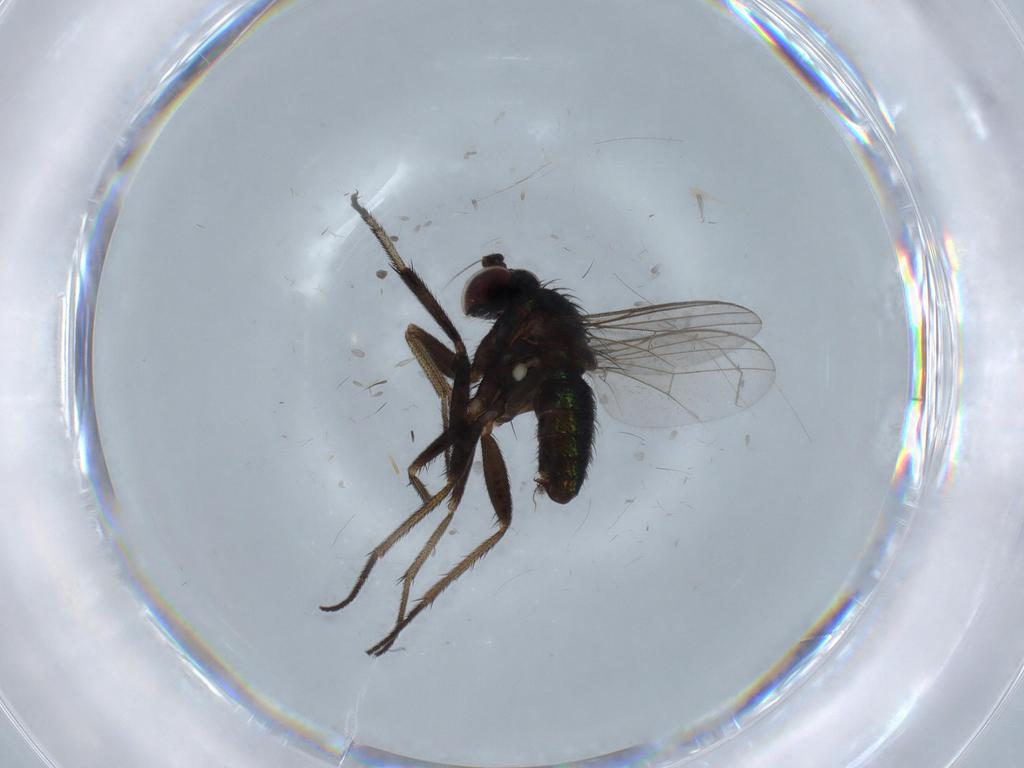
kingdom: Animalia
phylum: Arthropoda
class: Insecta
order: Diptera
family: Dolichopodidae
